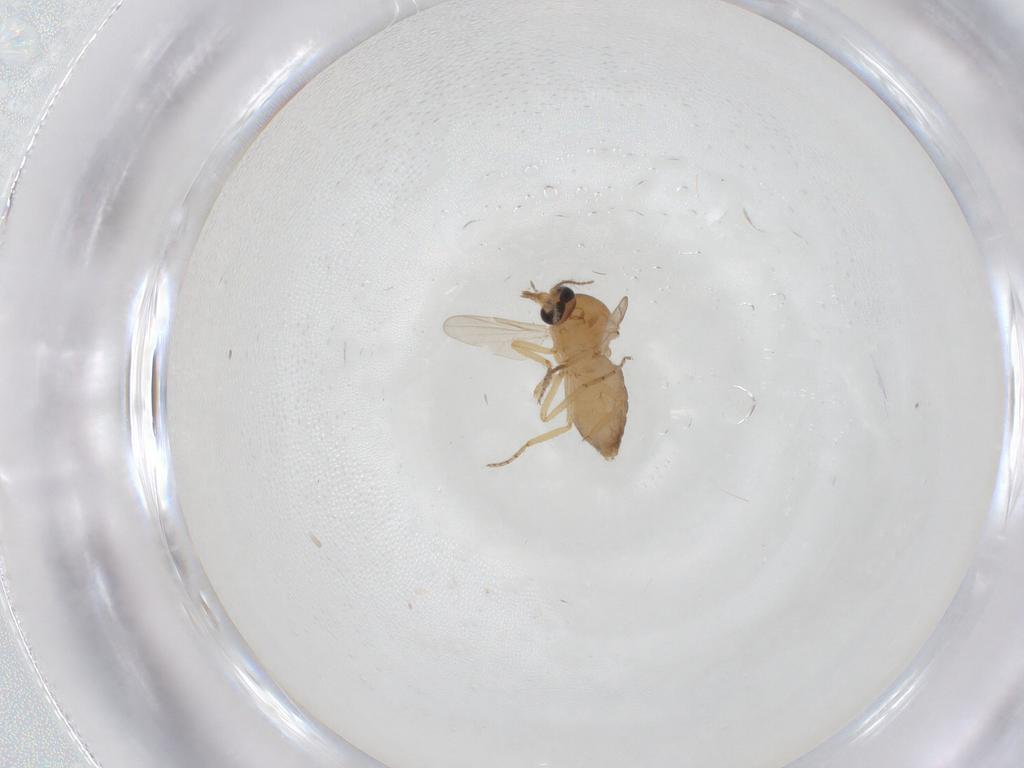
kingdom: Animalia
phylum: Arthropoda
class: Insecta
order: Diptera
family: Ceratopogonidae
